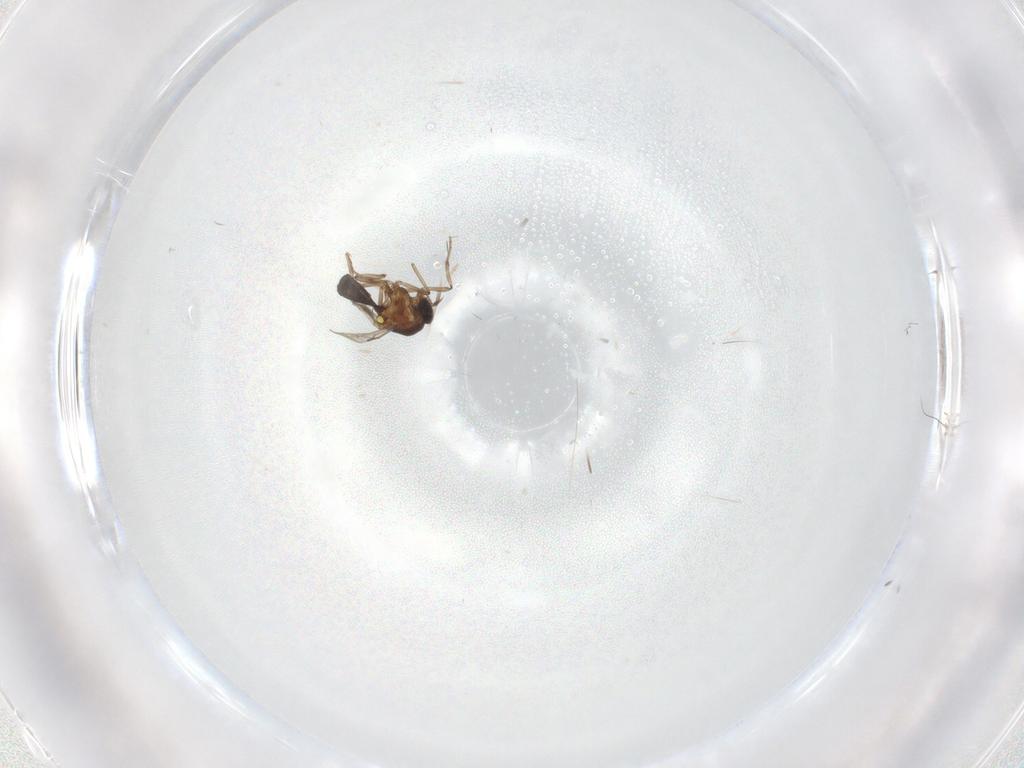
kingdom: Animalia
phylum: Arthropoda
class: Insecta
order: Diptera
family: Cecidomyiidae
